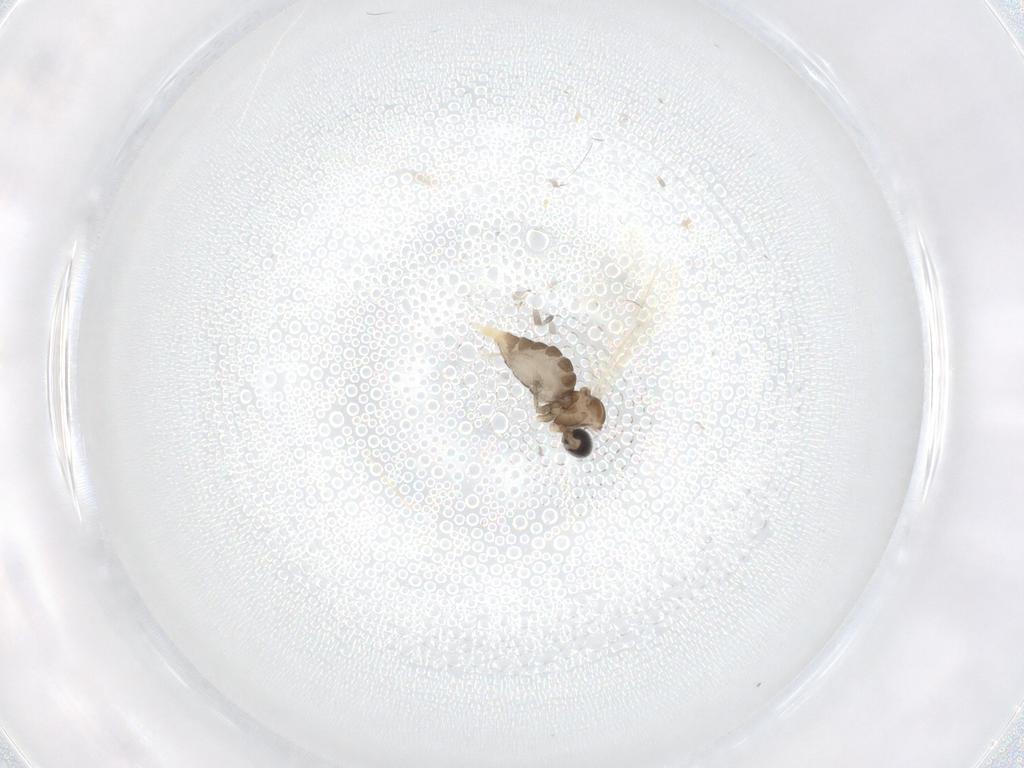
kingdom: Animalia
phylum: Arthropoda
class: Insecta
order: Diptera
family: Cecidomyiidae
